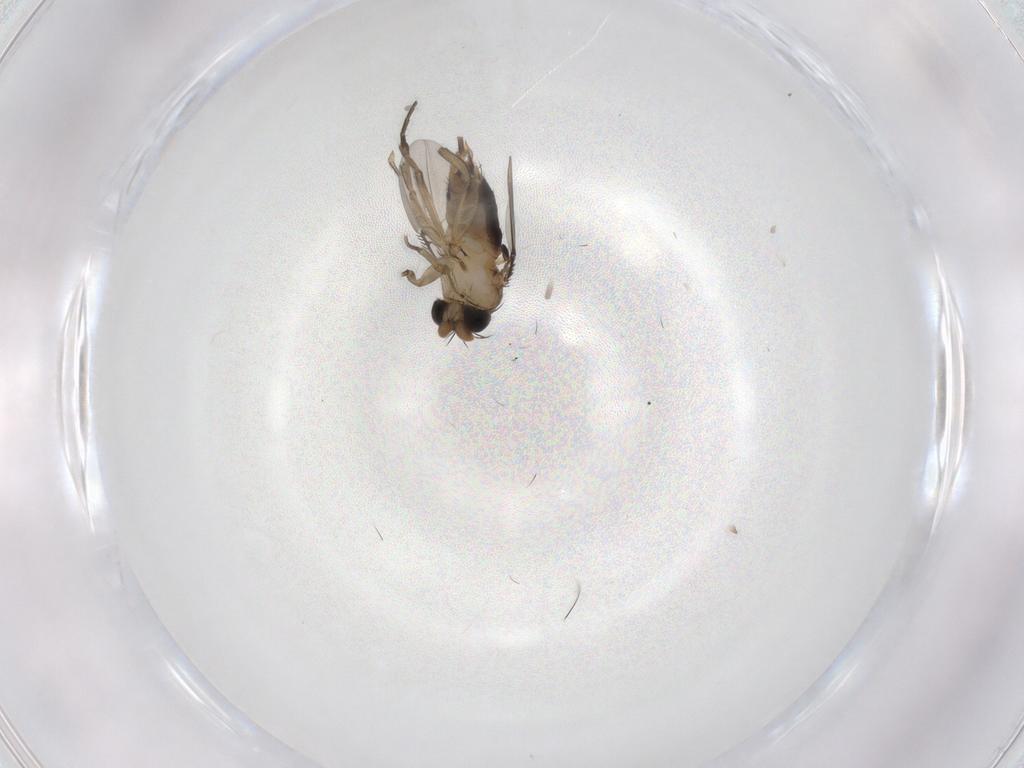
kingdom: Animalia
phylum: Arthropoda
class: Insecta
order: Diptera
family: Phoridae
